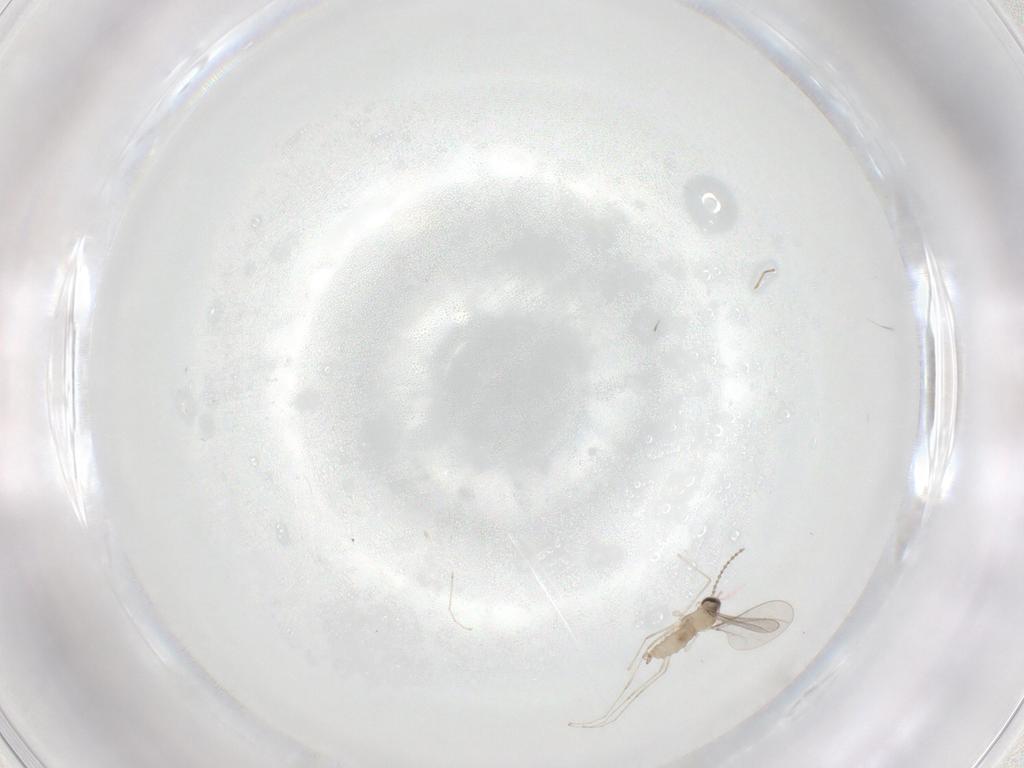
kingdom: Animalia
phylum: Arthropoda
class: Insecta
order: Diptera
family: Cecidomyiidae
